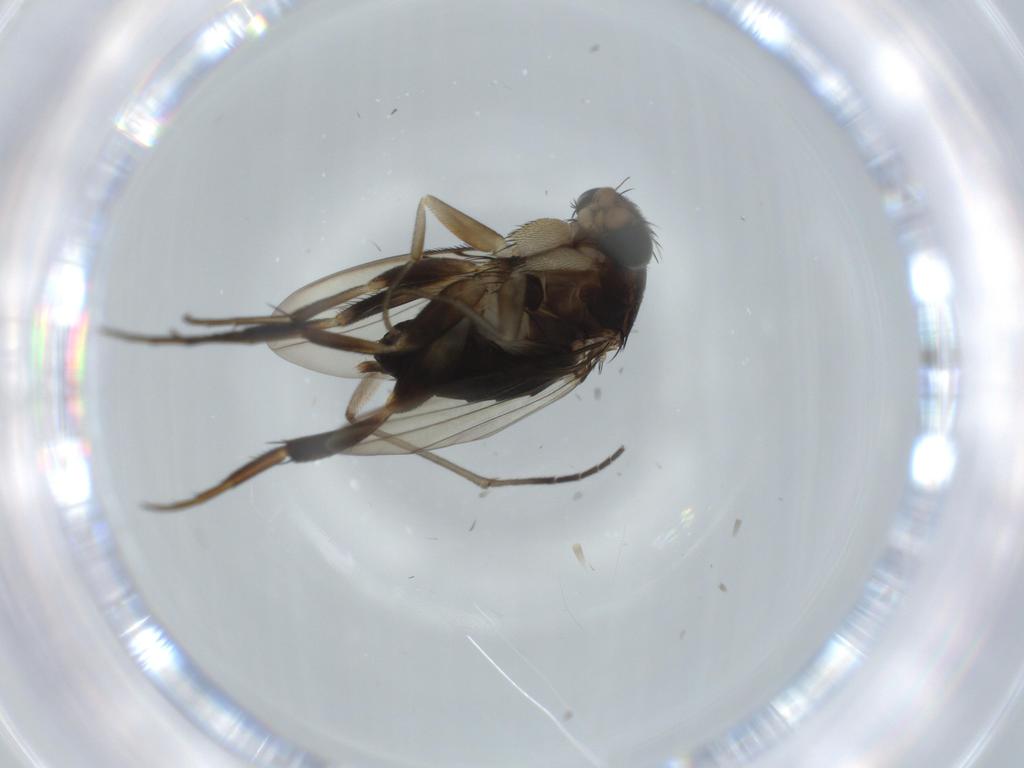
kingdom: Animalia
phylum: Arthropoda
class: Insecta
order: Diptera
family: Phoridae
